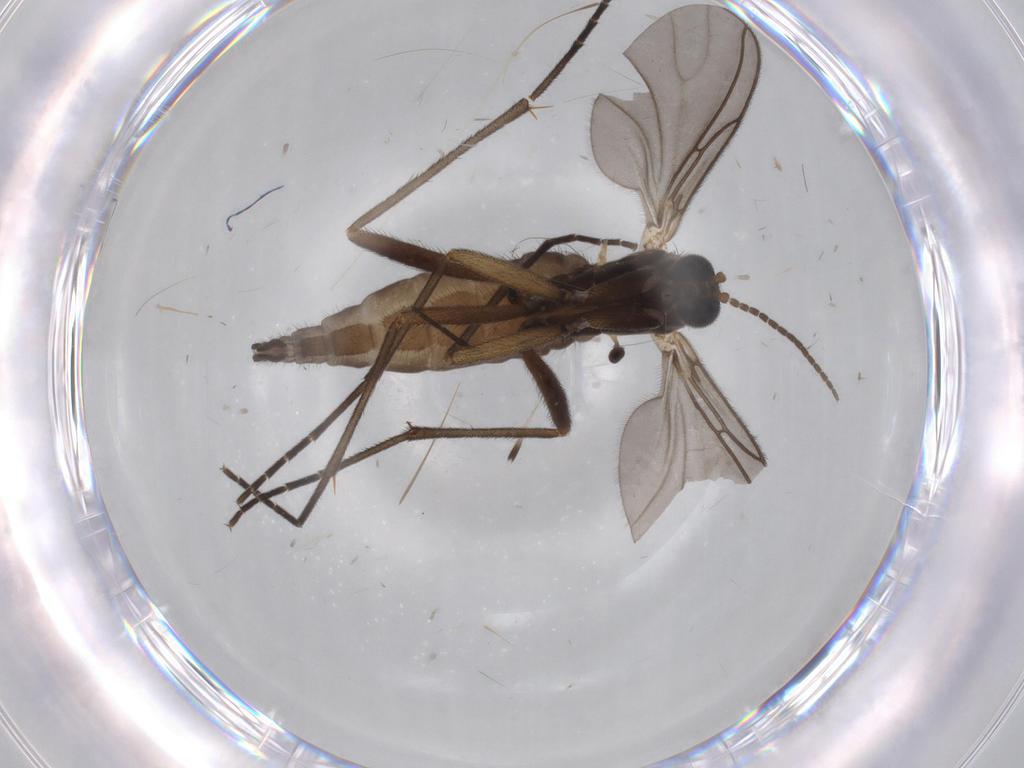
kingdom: Animalia
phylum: Arthropoda
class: Insecta
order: Diptera
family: Sciaridae
